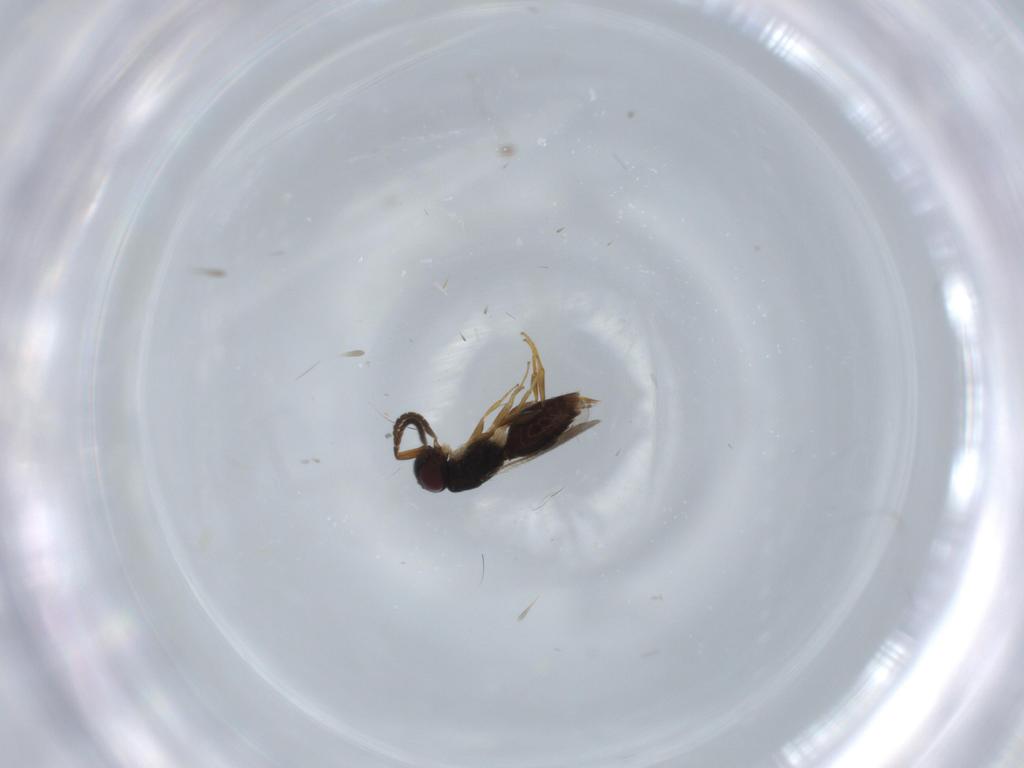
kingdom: Animalia
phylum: Arthropoda
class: Insecta
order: Hymenoptera
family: Megaspilidae
